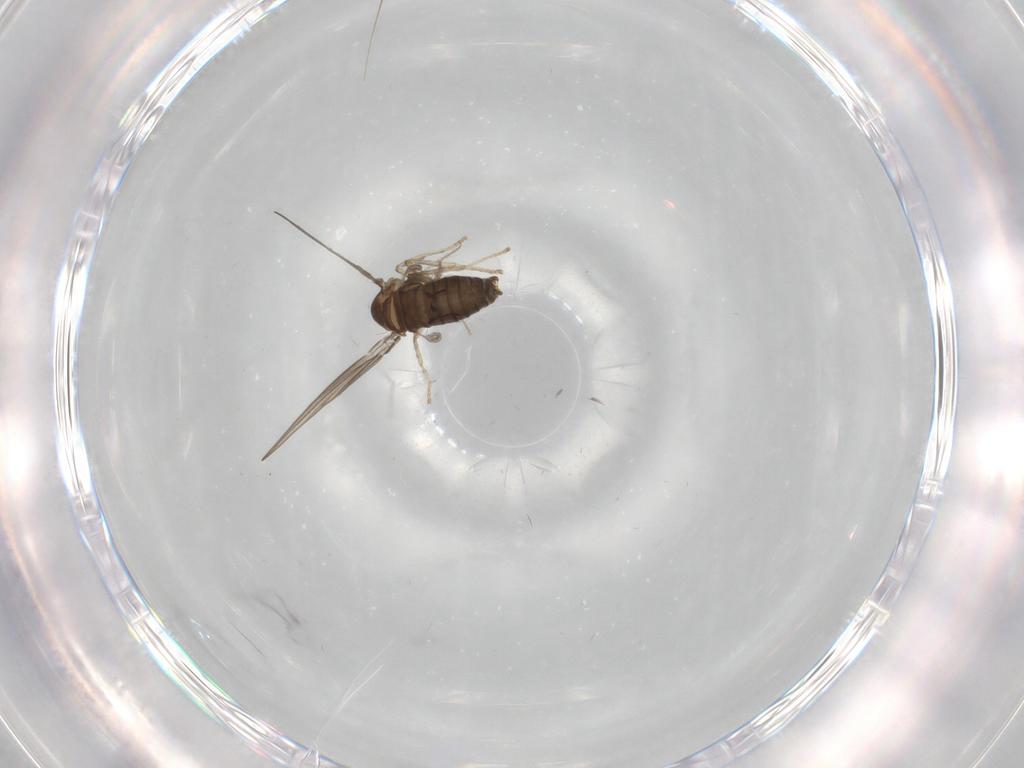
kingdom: Animalia
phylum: Arthropoda
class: Insecta
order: Diptera
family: Psychodidae
